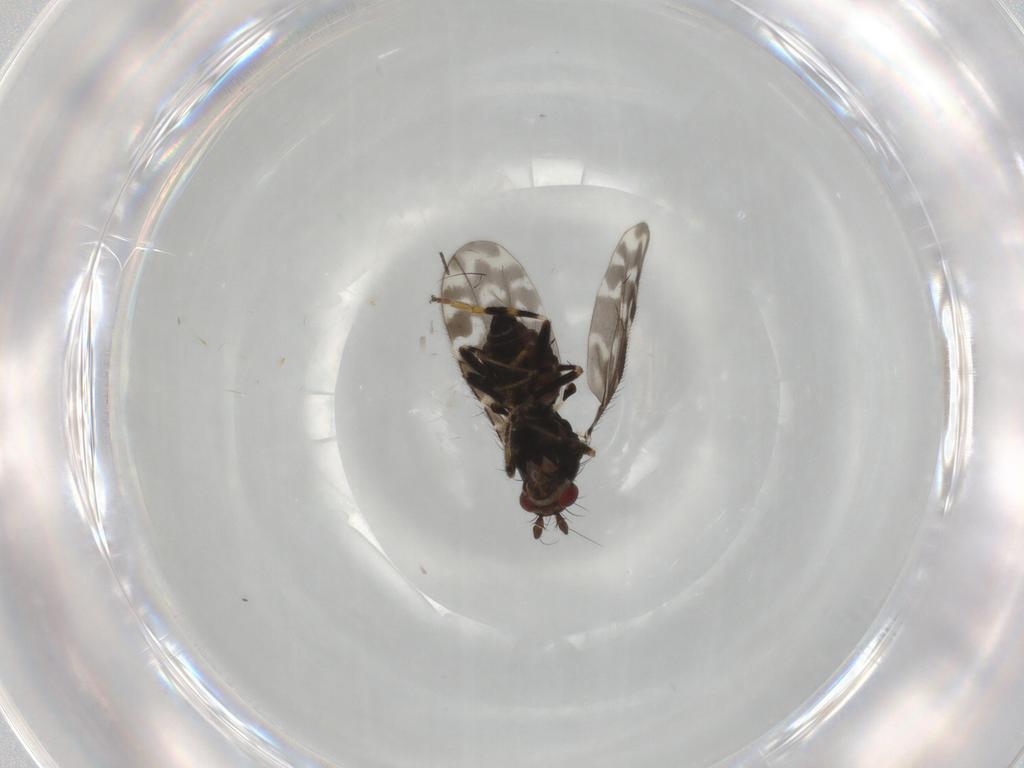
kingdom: Animalia
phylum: Arthropoda
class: Insecta
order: Diptera
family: Sphaeroceridae
